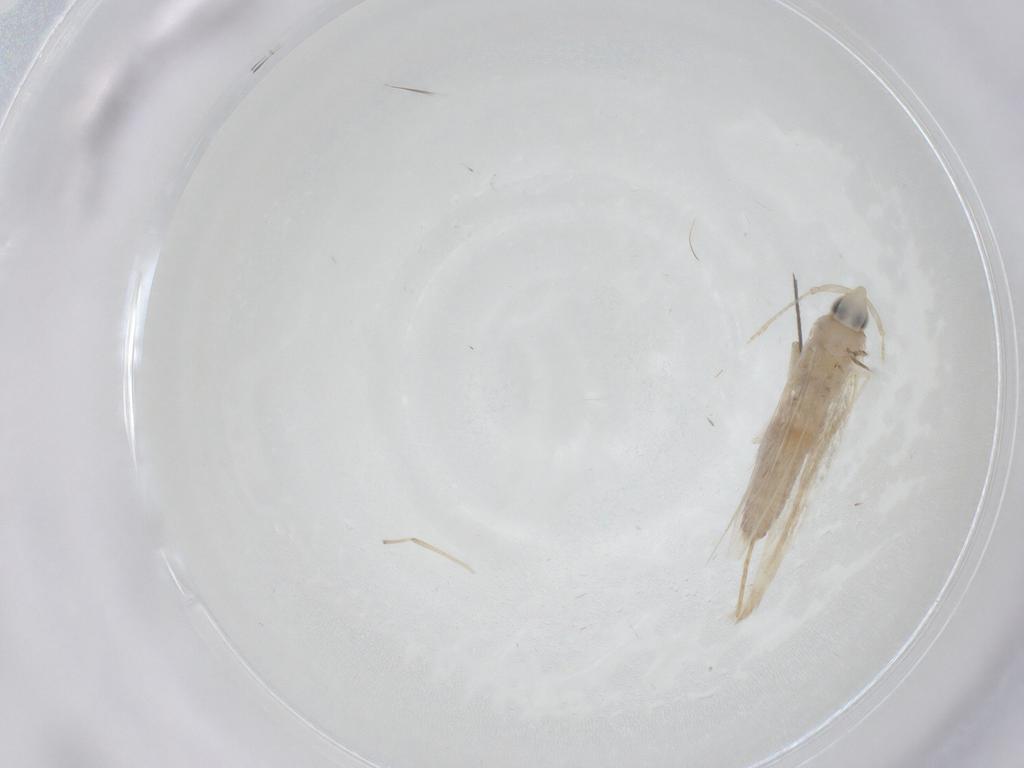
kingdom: Animalia
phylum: Arthropoda
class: Insecta
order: Lepidoptera
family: Tineidae
